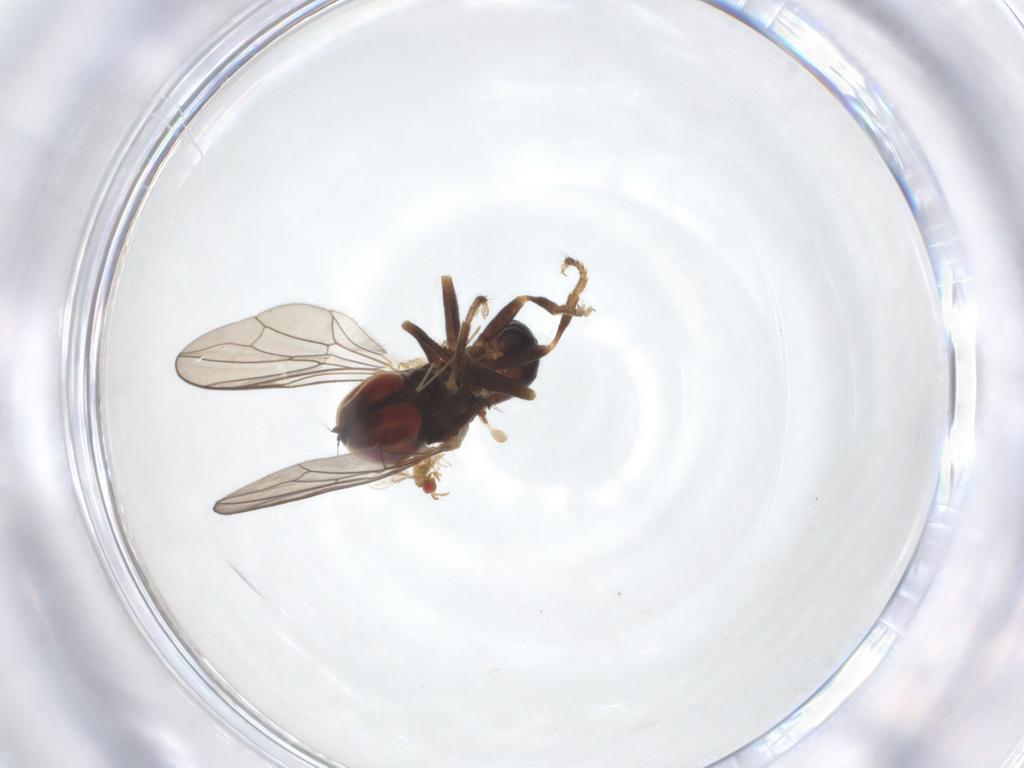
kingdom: Animalia
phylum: Arthropoda
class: Insecta
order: Diptera
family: Pipunculidae
